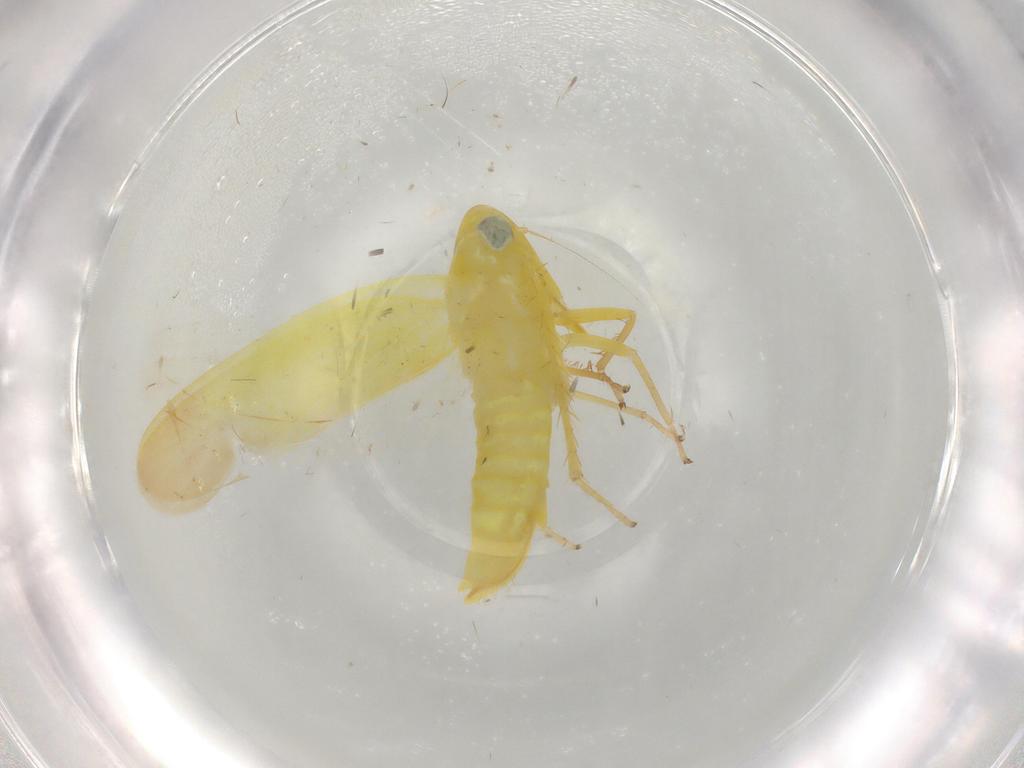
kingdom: Animalia
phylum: Arthropoda
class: Insecta
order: Hemiptera
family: Cicadellidae
